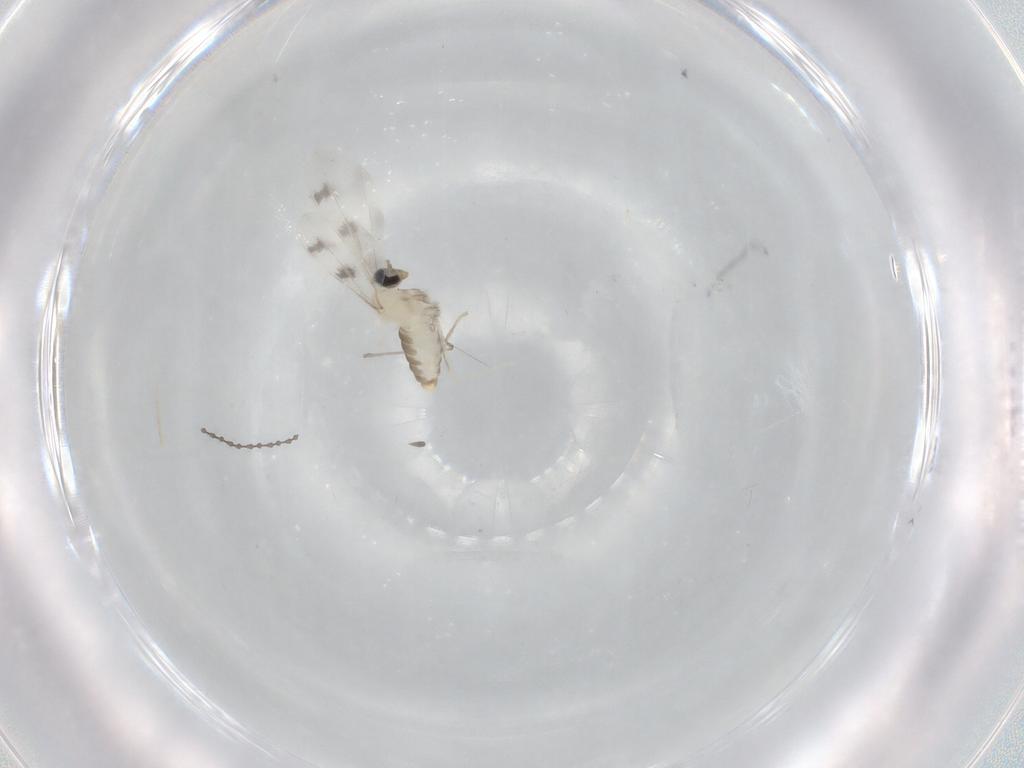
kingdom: Animalia
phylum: Arthropoda
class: Insecta
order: Diptera
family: Cecidomyiidae
